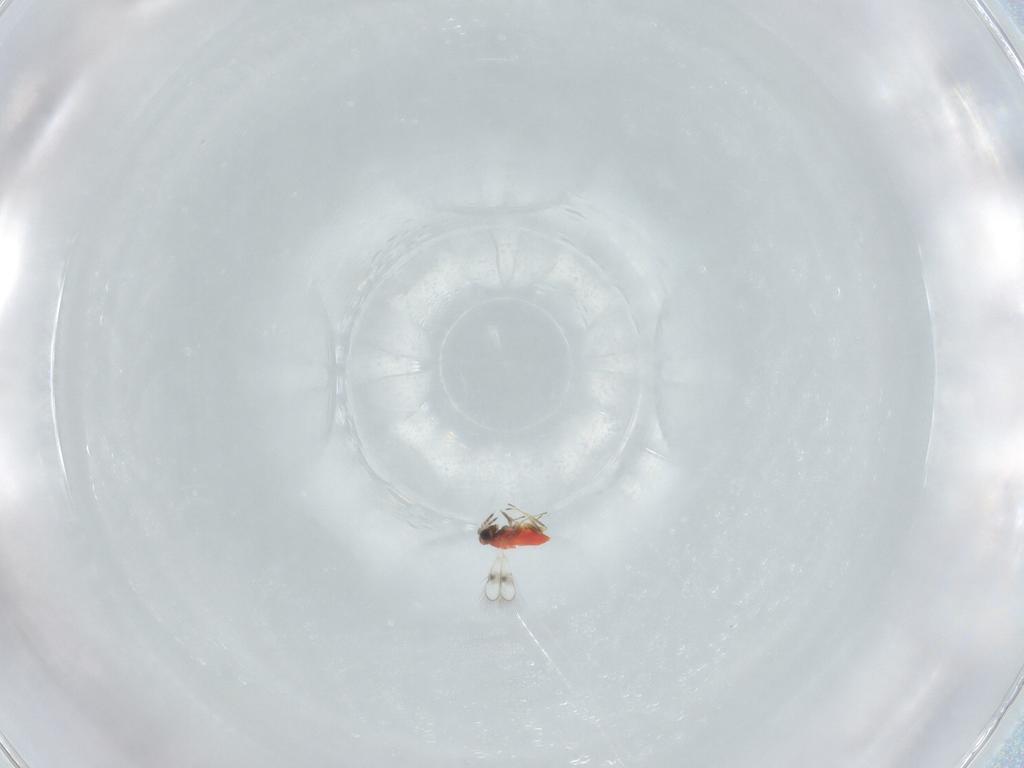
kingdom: Animalia
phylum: Arthropoda
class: Insecta
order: Hymenoptera
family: Trichogrammatidae
